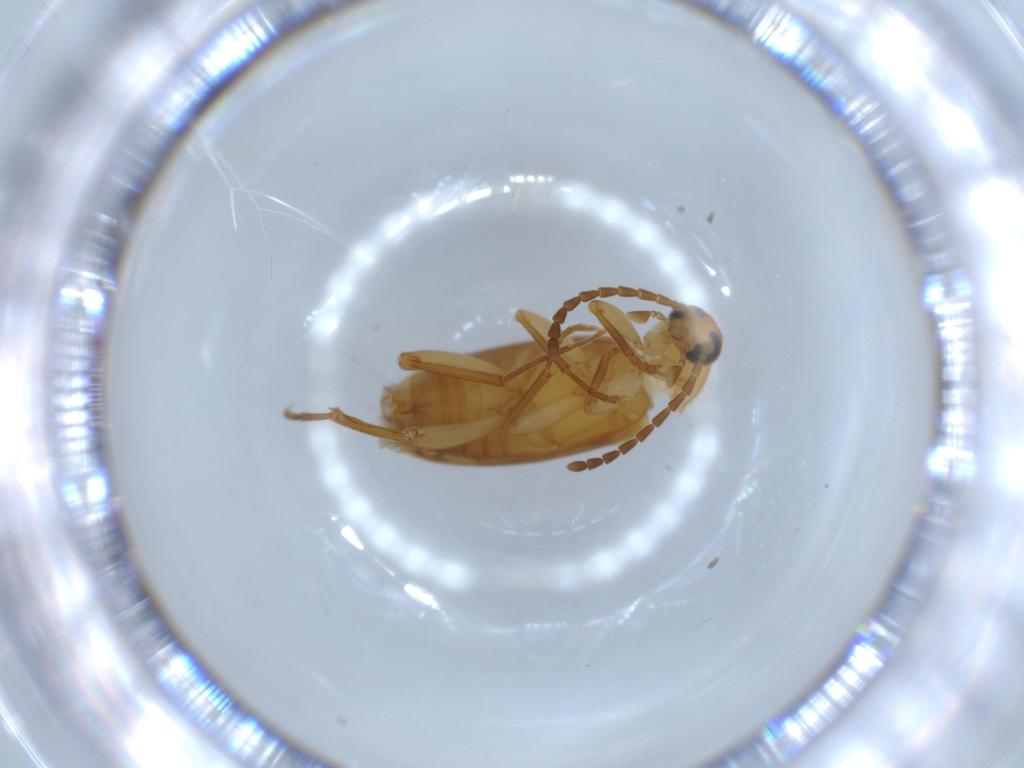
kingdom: Animalia
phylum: Arthropoda
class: Insecta
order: Coleoptera
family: Scraptiidae
